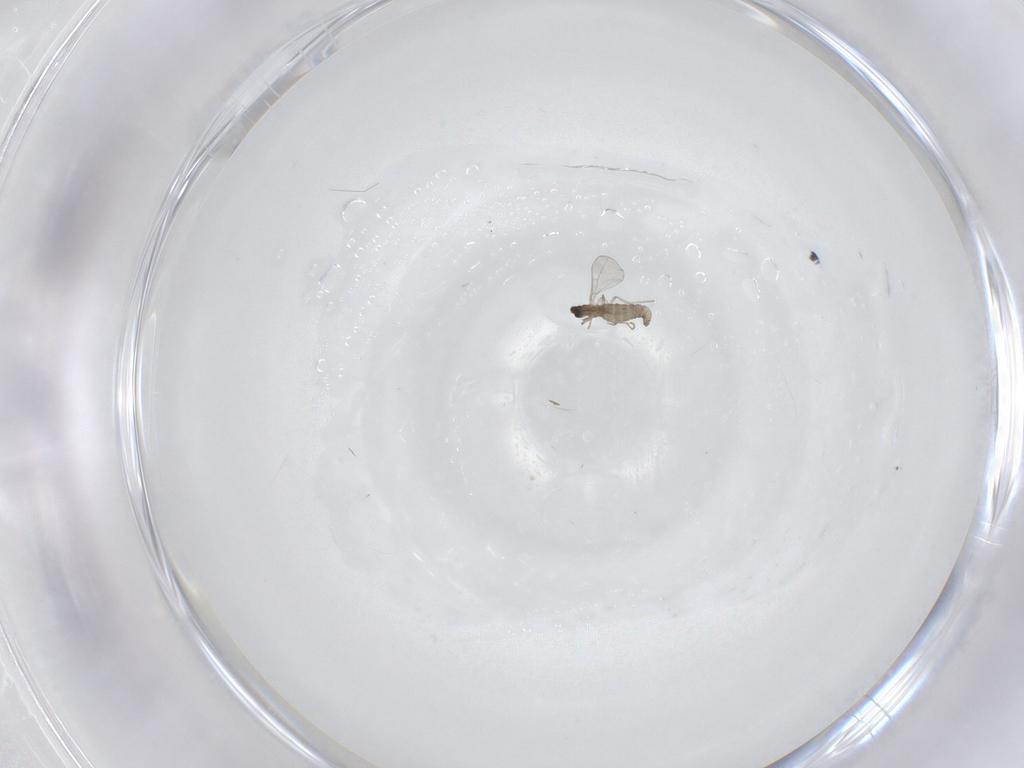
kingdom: Animalia
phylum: Arthropoda
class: Insecta
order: Diptera
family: Cecidomyiidae
